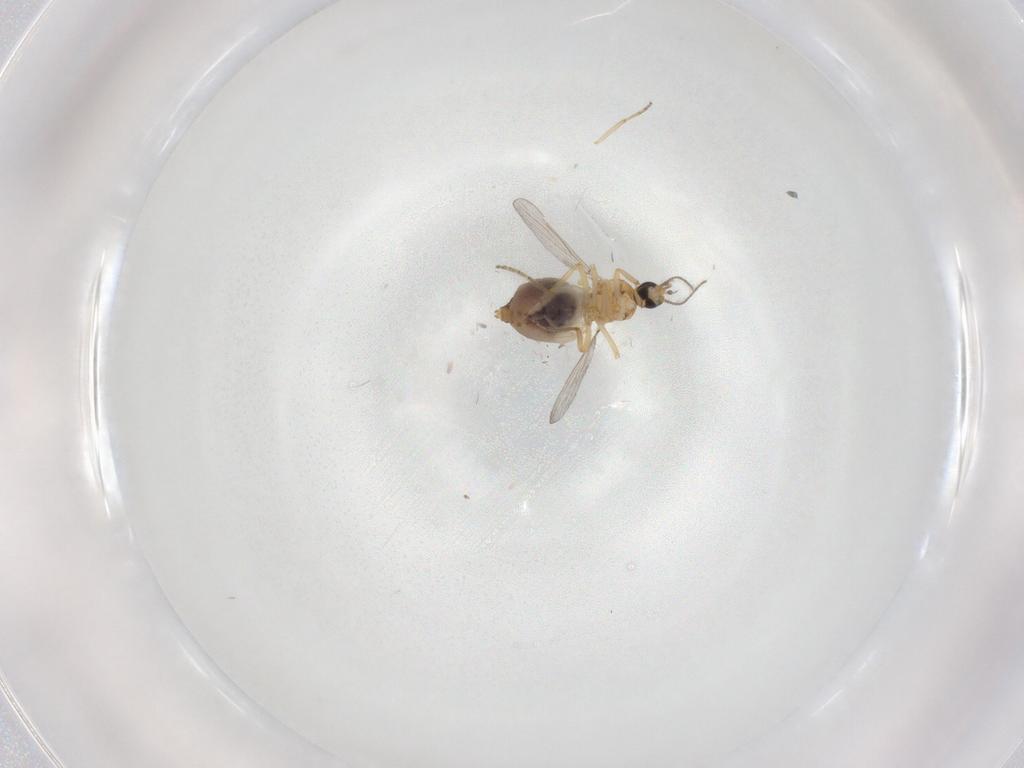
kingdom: Animalia
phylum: Arthropoda
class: Insecta
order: Diptera
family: Ceratopogonidae
